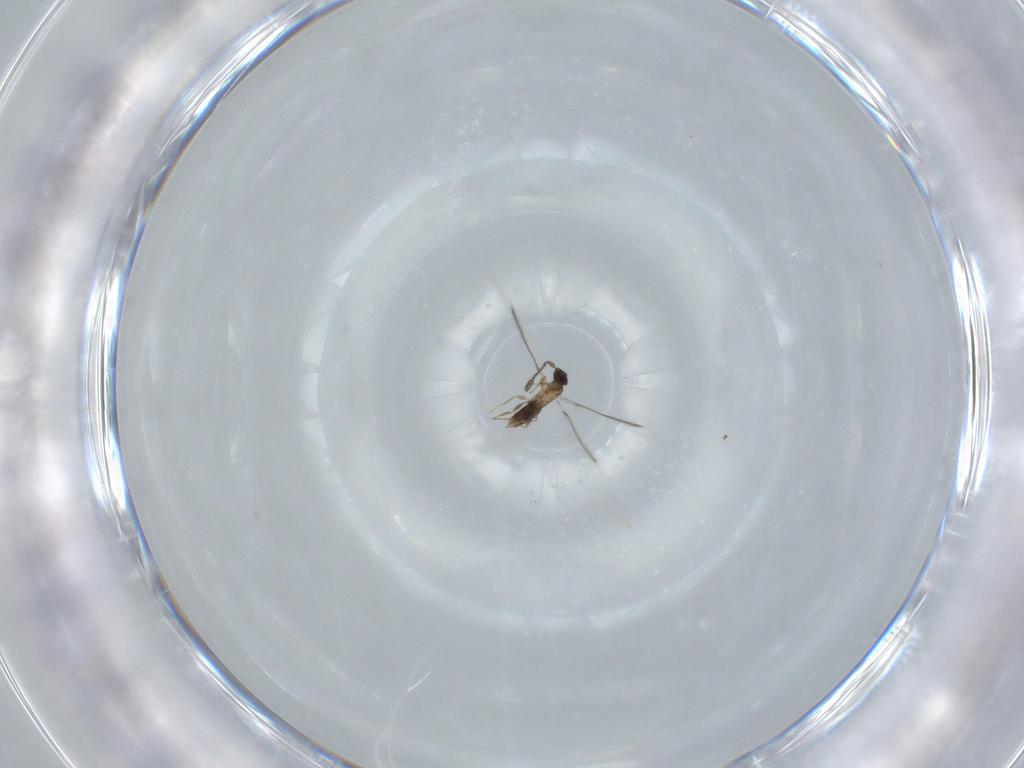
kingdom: Animalia
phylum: Arthropoda
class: Insecta
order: Hymenoptera
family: Mymaridae
